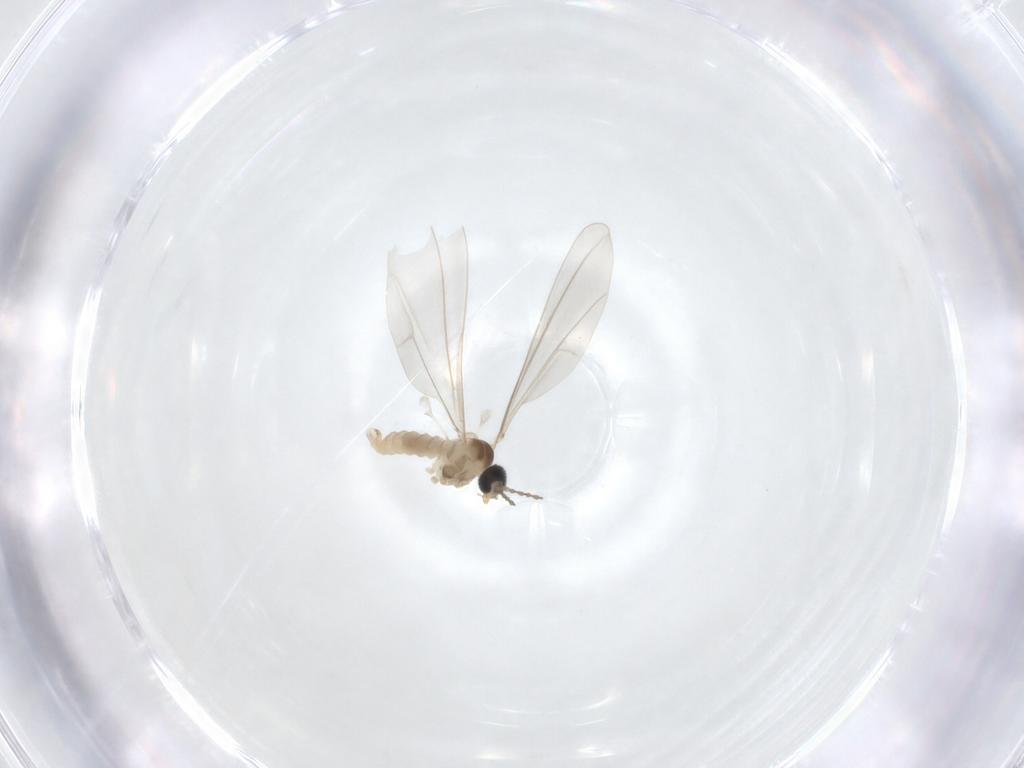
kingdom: Animalia
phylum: Arthropoda
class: Insecta
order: Diptera
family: Cecidomyiidae
